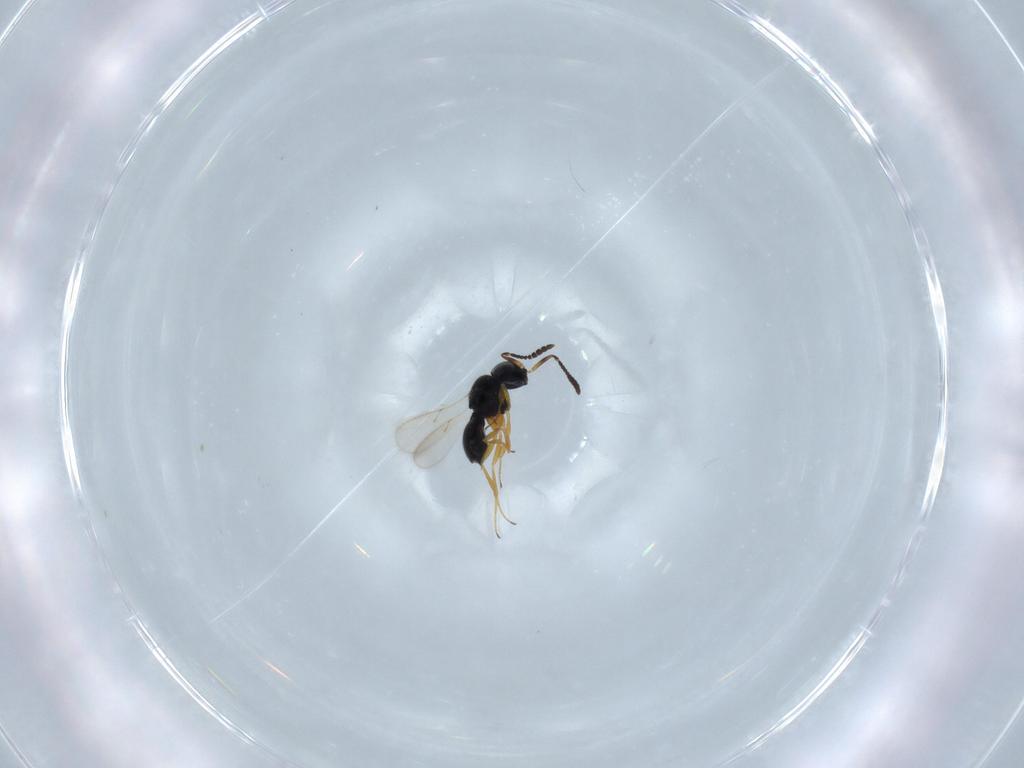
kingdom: Animalia
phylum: Arthropoda
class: Insecta
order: Hymenoptera
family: Scelionidae
